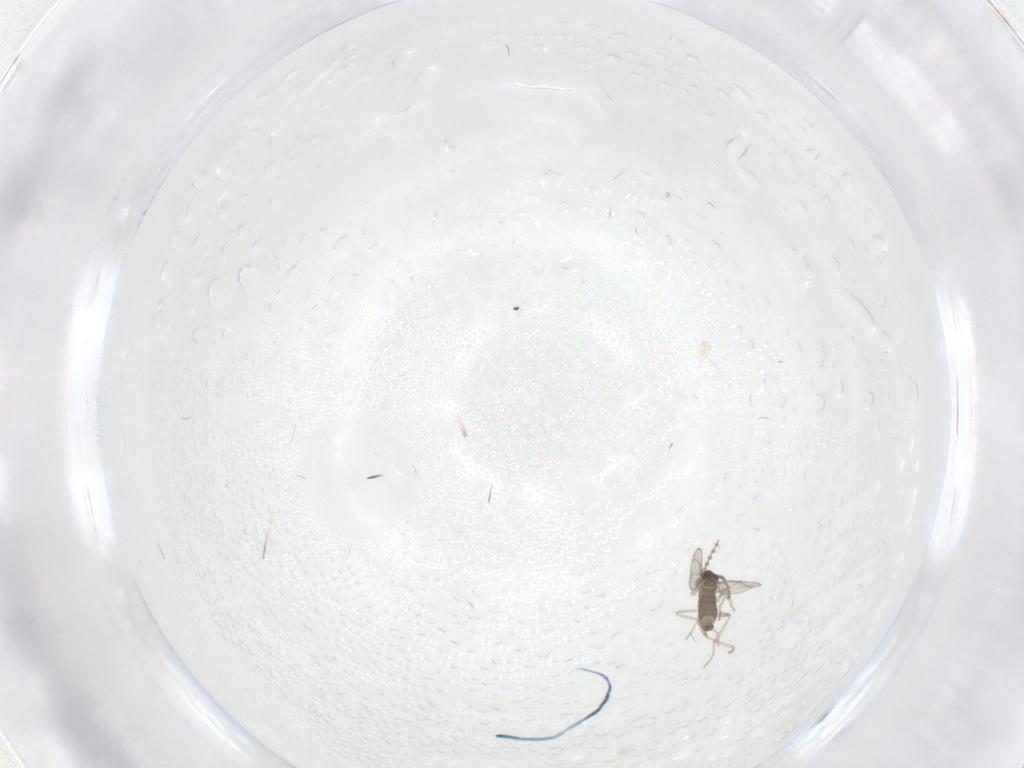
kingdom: Animalia
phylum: Arthropoda
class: Insecta
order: Diptera
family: Cecidomyiidae
